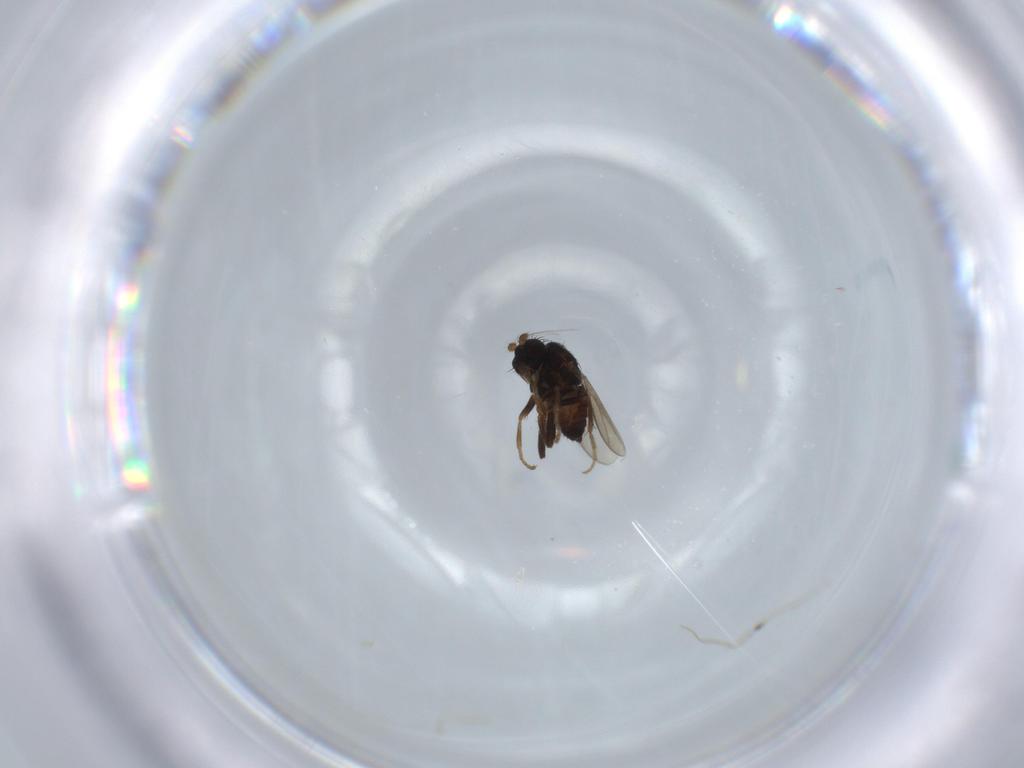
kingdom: Animalia
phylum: Arthropoda
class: Insecta
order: Diptera
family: Sphaeroceridae
